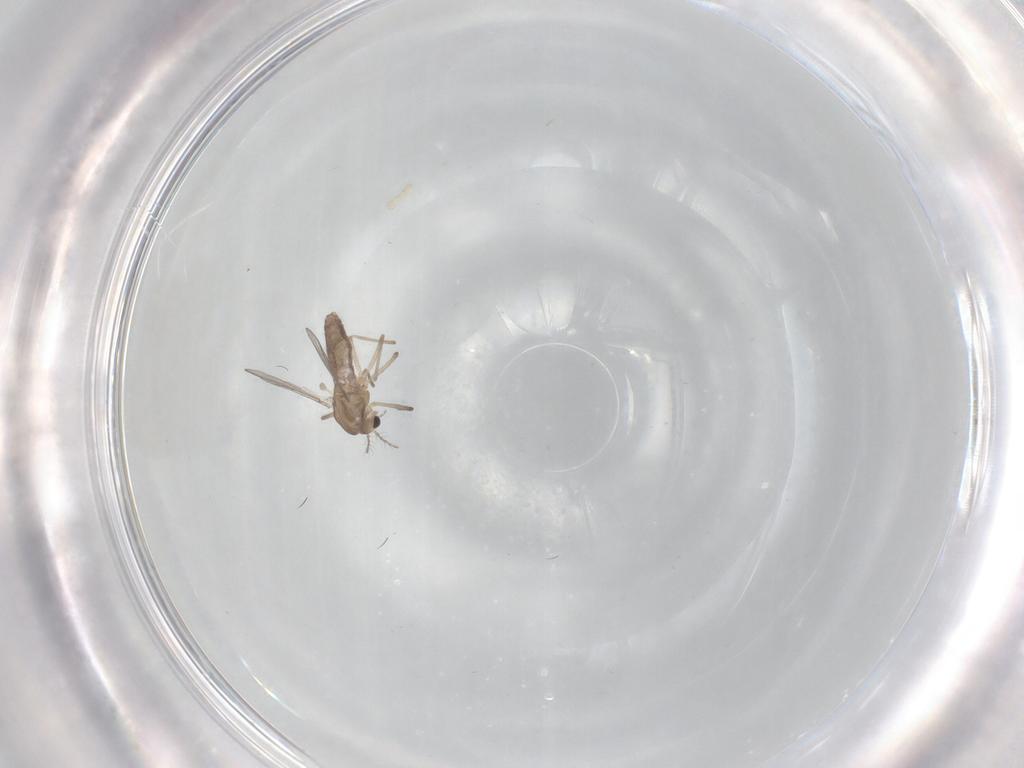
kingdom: Animalia
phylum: Arthropoda
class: Insecta
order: Diptera
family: Chironomidae
